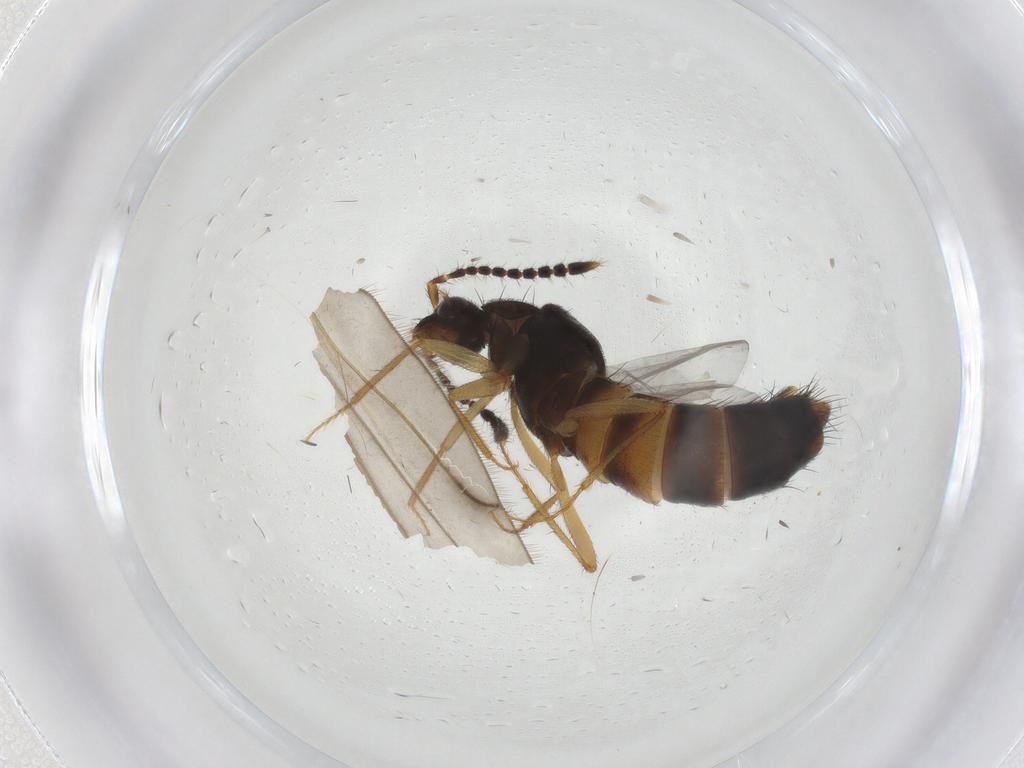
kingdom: Animalia
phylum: Arthropoda
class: Insecta
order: Coleoptera
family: Staphylinidae
